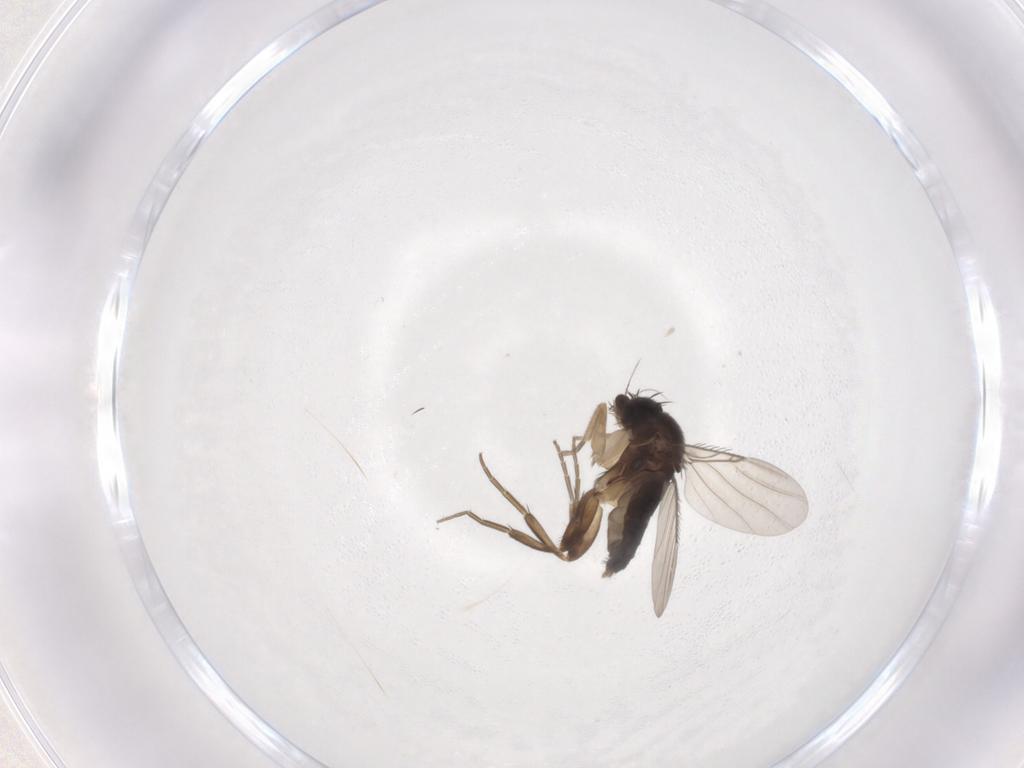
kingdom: Animalia
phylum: Arthropoda
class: Insecta
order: Diptera
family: Phoridae
